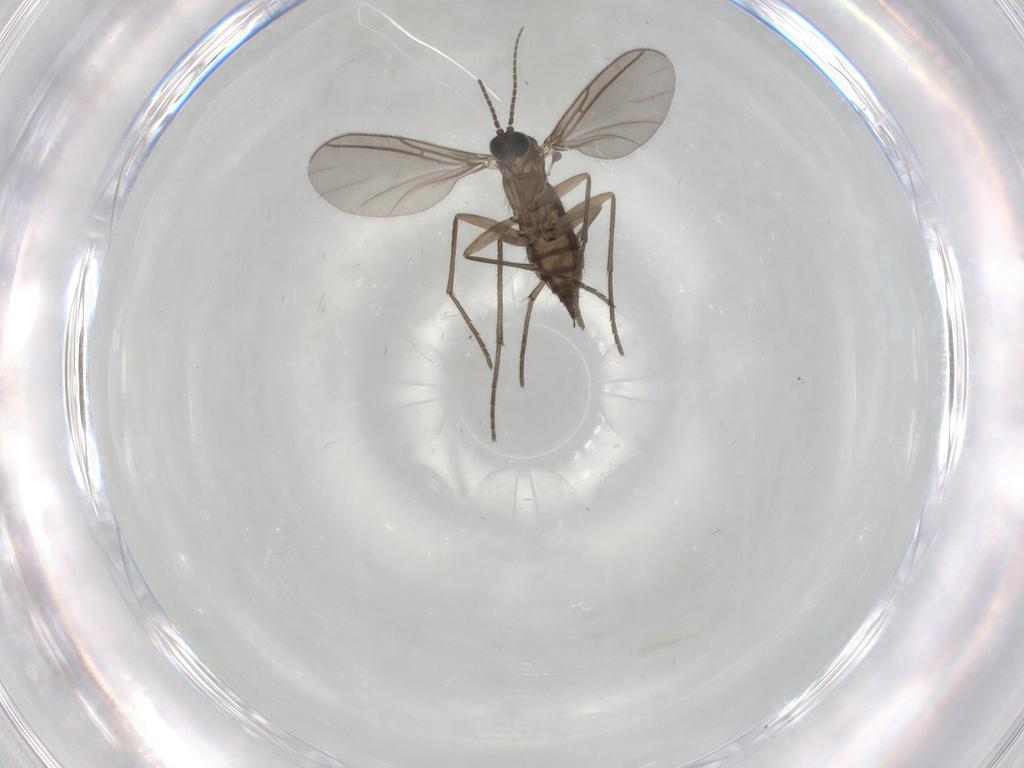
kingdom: Animalia
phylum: Arthropoda
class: Insecta
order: Diptera
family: Sciaridae
